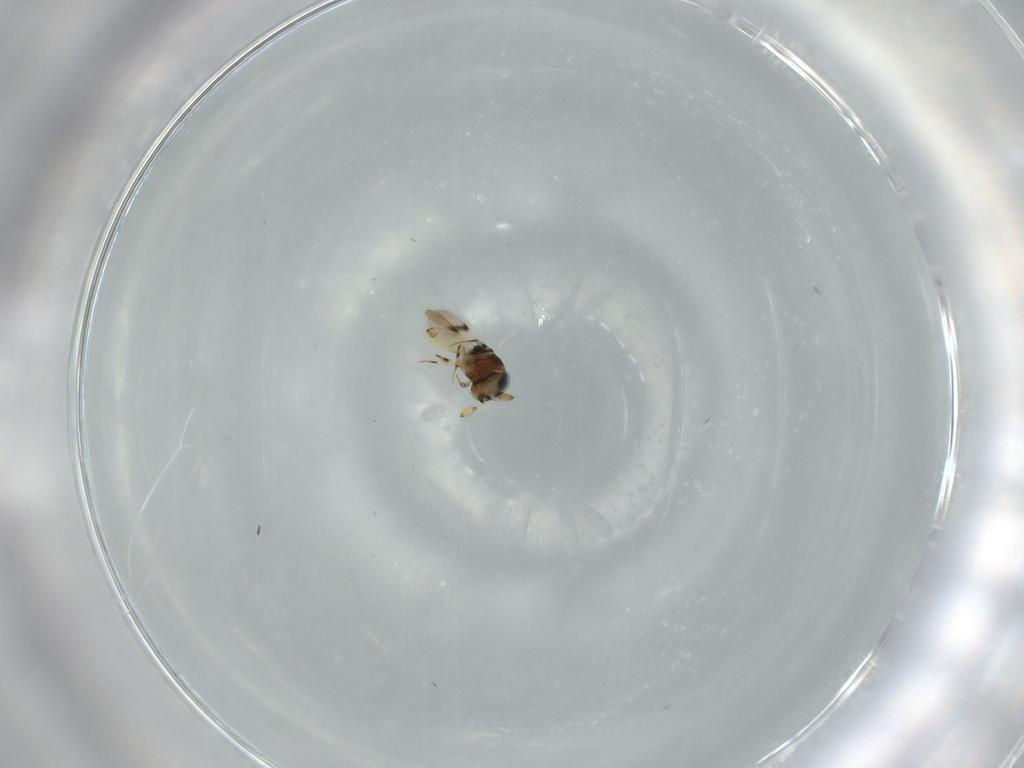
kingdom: Animalia
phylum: Arthropoda
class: Insecta
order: Hymenoptera
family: Scelionidae
